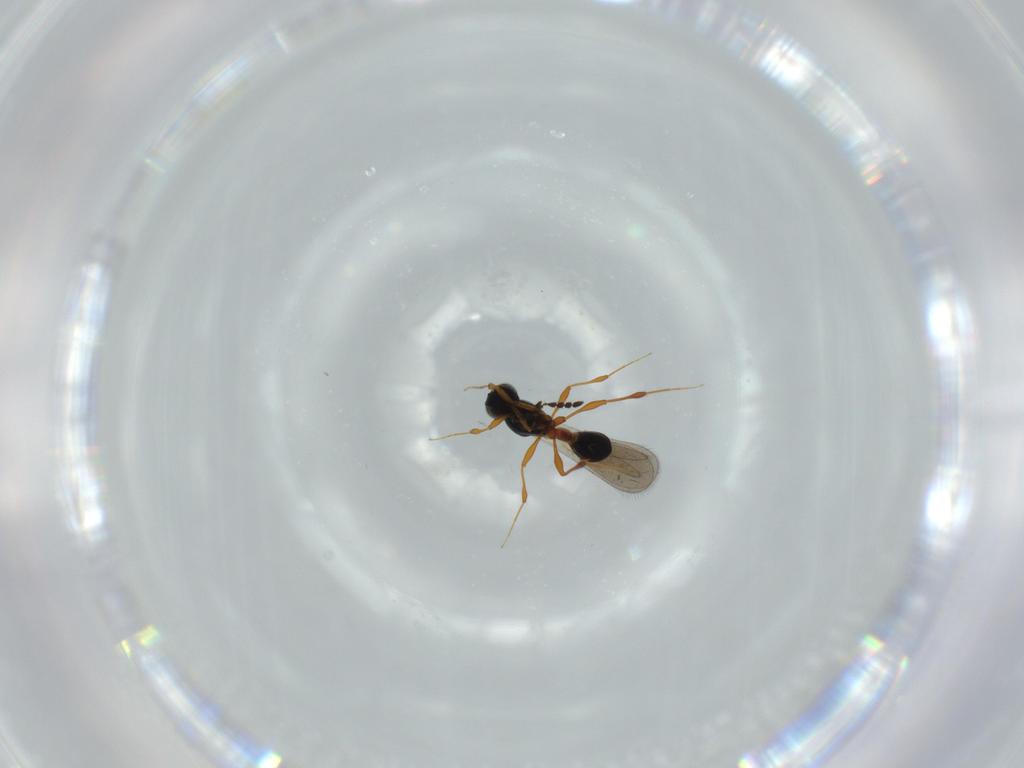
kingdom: Animalia
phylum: Arthropoda
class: Insecta
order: Hymenoptera
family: Platygastridae
